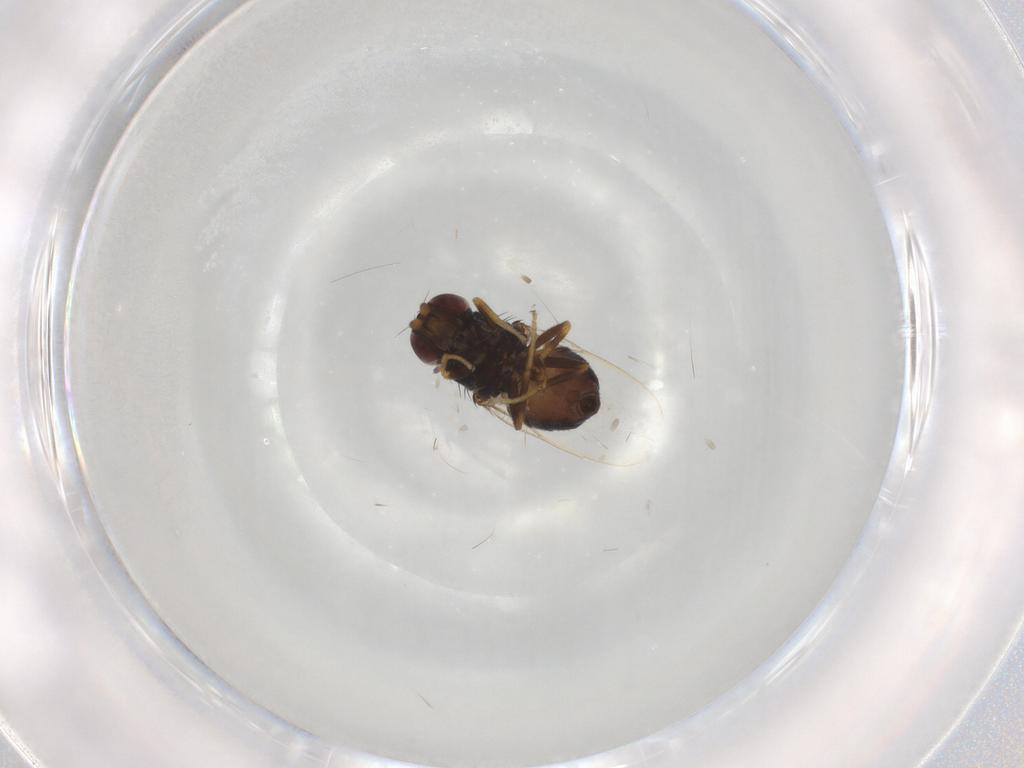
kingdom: Animalia
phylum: Arthropoda
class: Insecta
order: Diptera
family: Chloropidae
